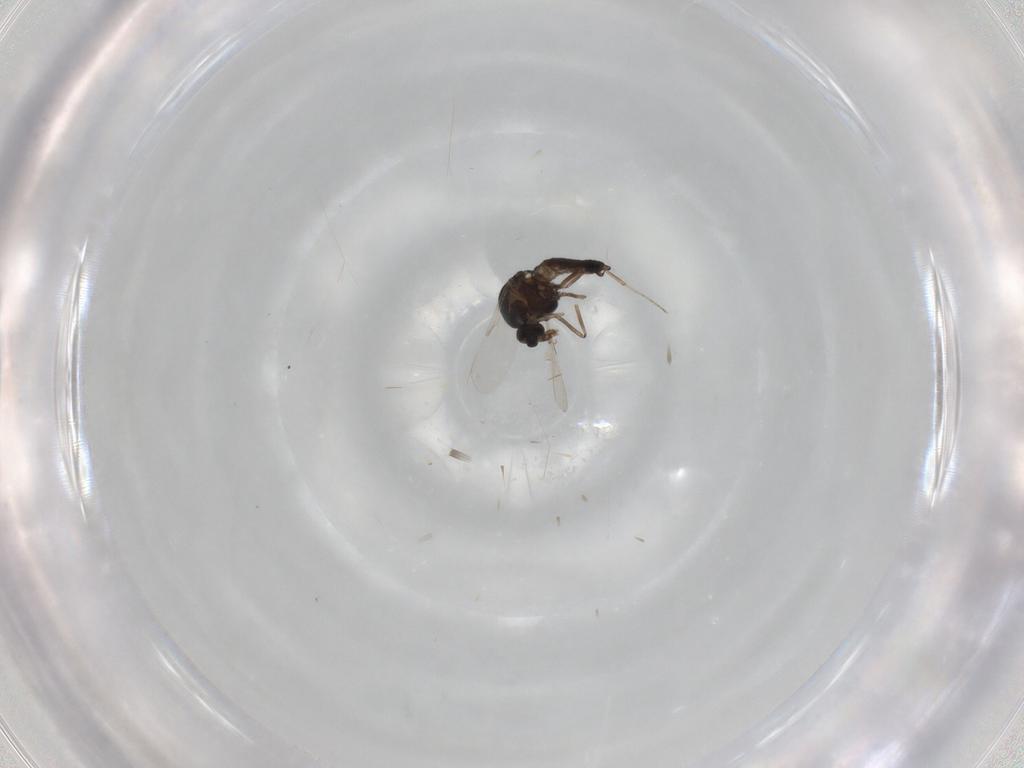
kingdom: Animalia
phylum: Arthropoda
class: Insecta
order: Diptera
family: Ceratopogonidae
